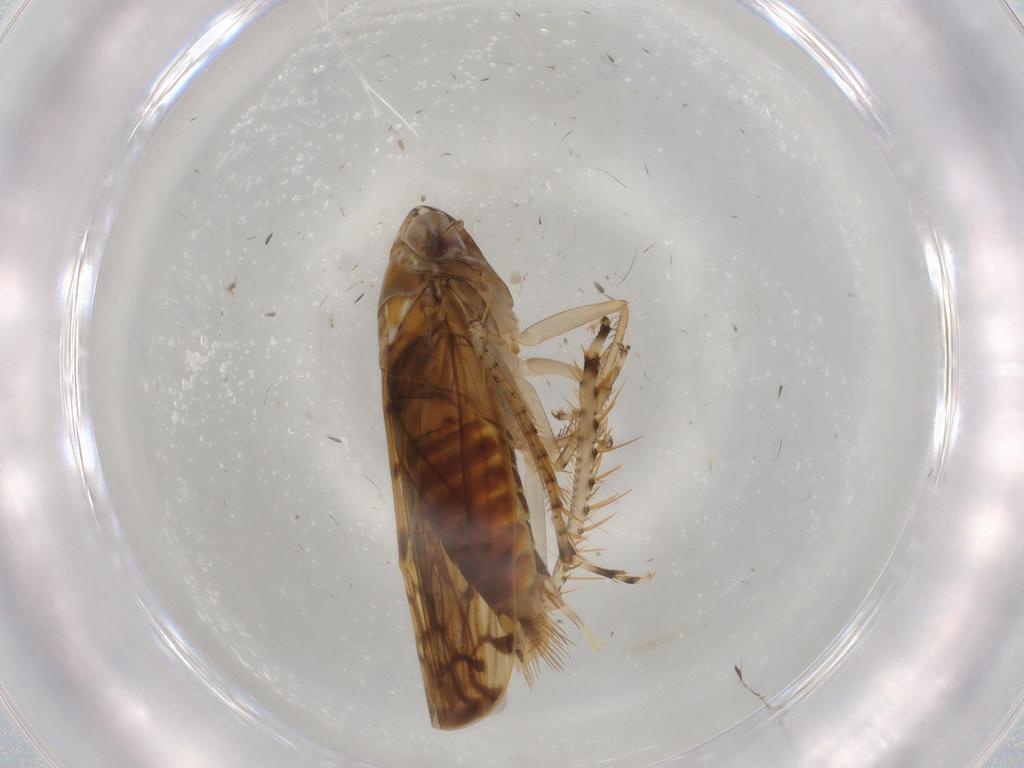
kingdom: Animalia
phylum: Arthropoda
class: Insecta
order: Hemiptera
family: Cicadellidae
